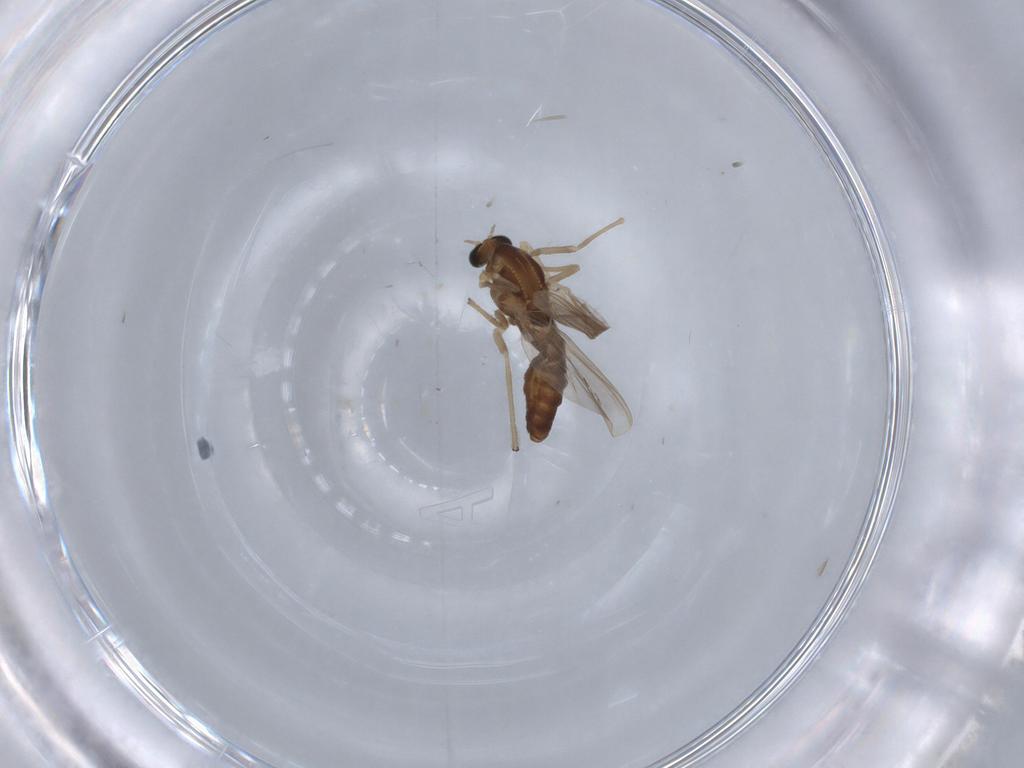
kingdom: Animalia
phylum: Arthropoda
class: Insecta
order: Diptera
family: Chironomidae
